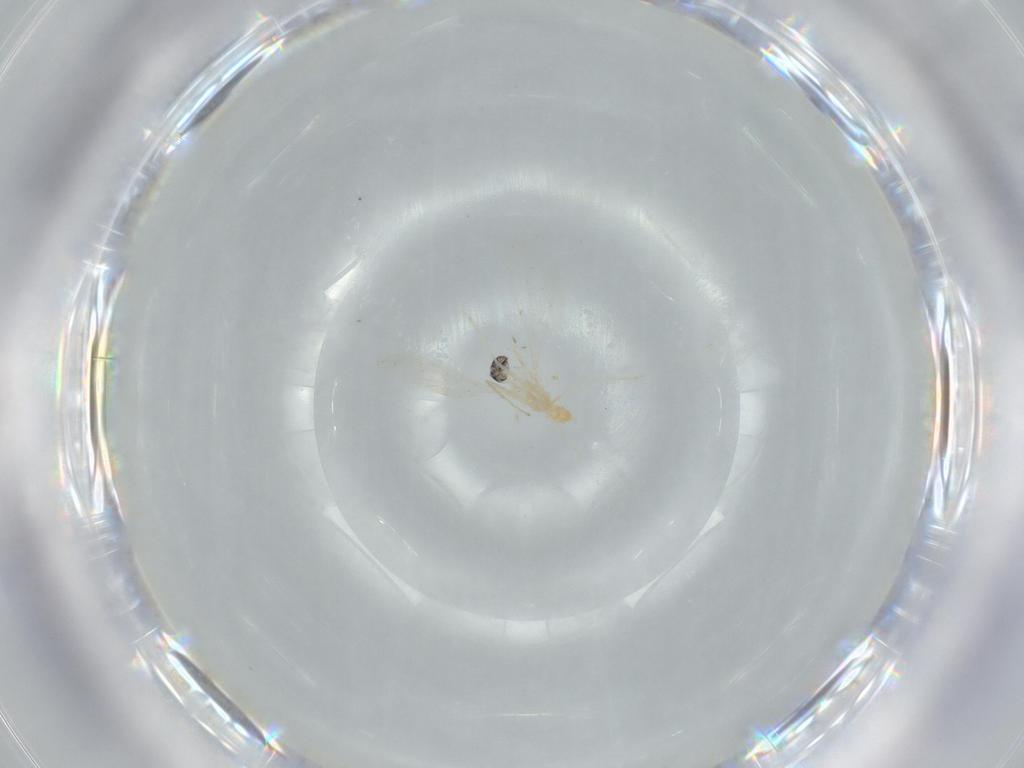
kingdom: Animalia
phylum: Arthropoda
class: Insecta
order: Diptera
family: Cecidomyiidae
